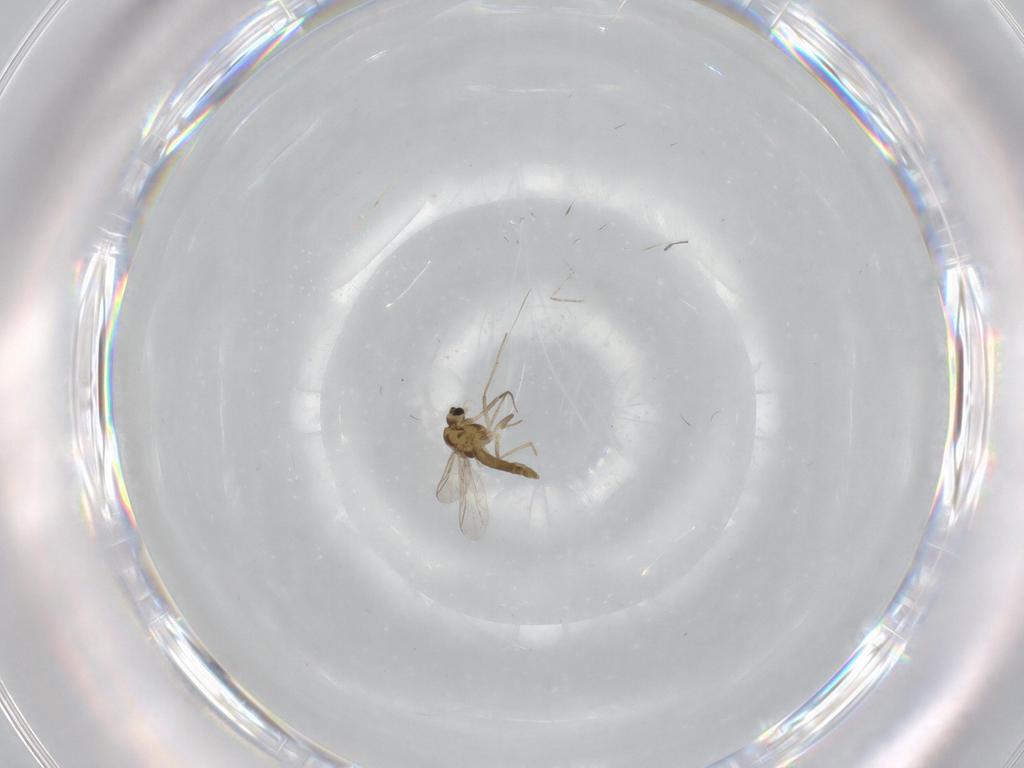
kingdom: Animalia
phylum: Arthropoda
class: Insecta
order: Diptera
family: Chironomidae
